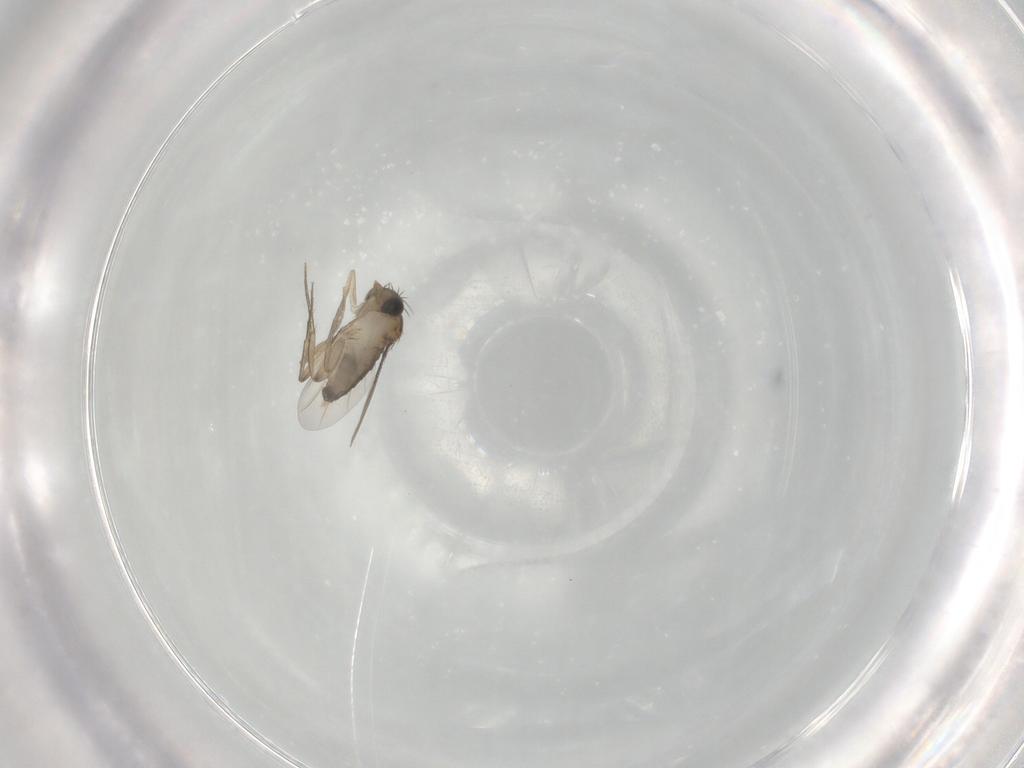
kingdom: Animalia
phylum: Arthropoda
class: Insecta
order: Diptera
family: Phoridae
